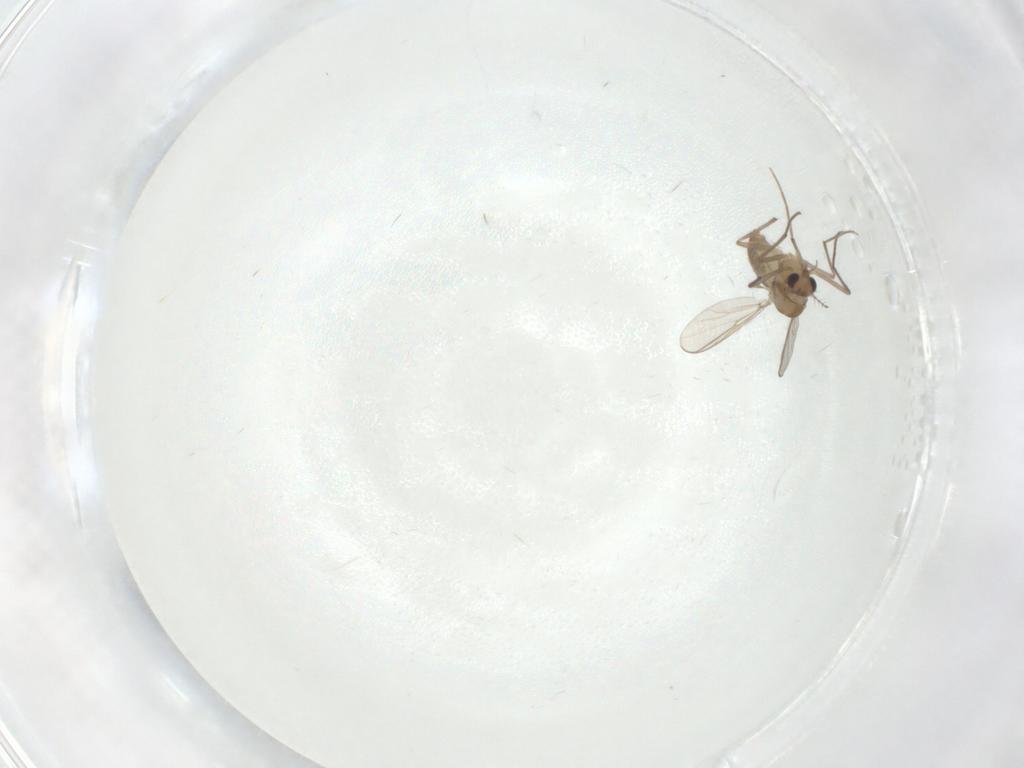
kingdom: Animalia
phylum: Arthropoda
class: Insecta
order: Diptera
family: Chironomidae
